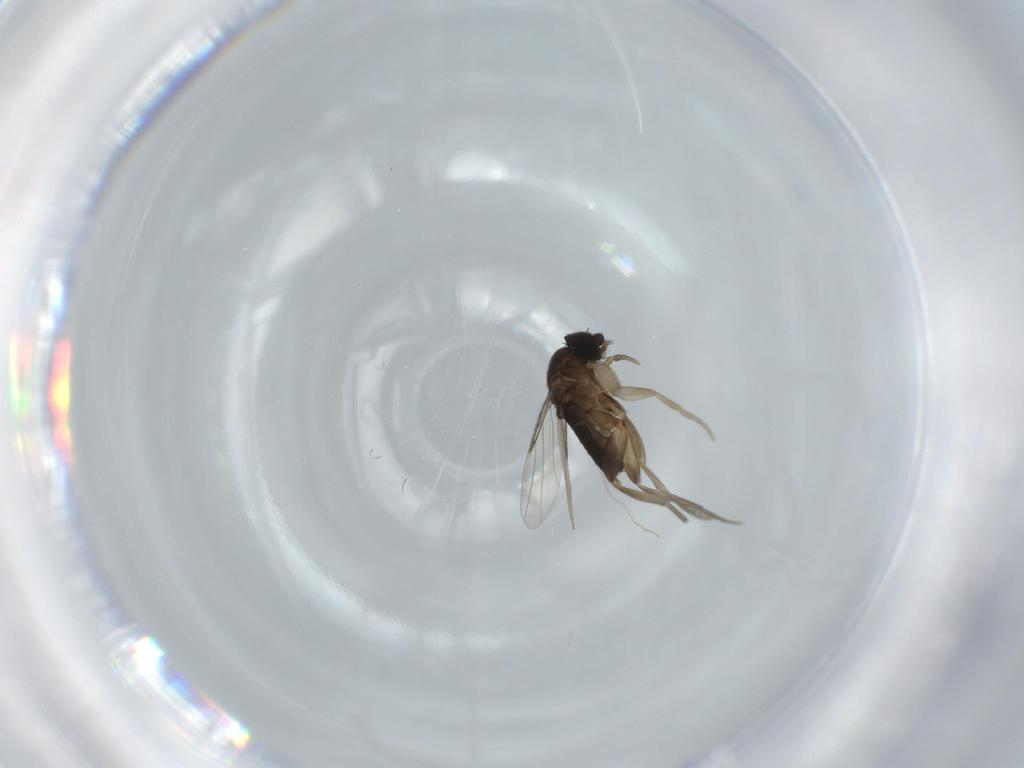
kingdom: Animalia
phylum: Arthropoda
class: Insecta
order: Diptera
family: Phoridae
